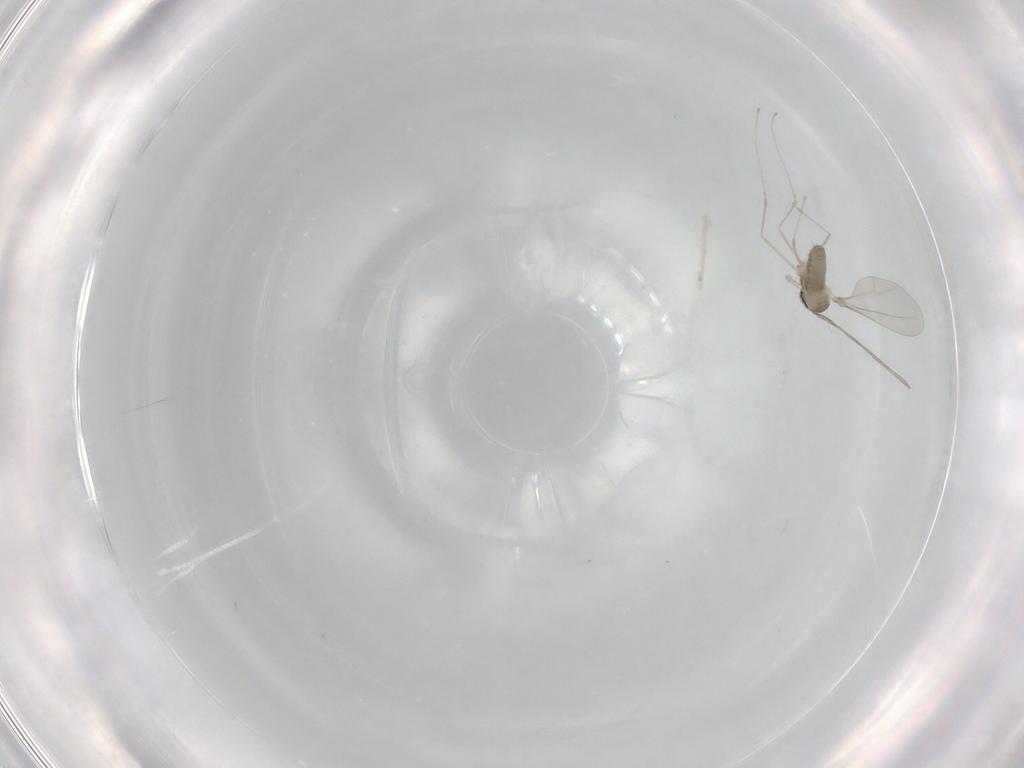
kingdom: Animalia
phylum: Arthropoda
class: Insecta
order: Diptera
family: Simuliidae
